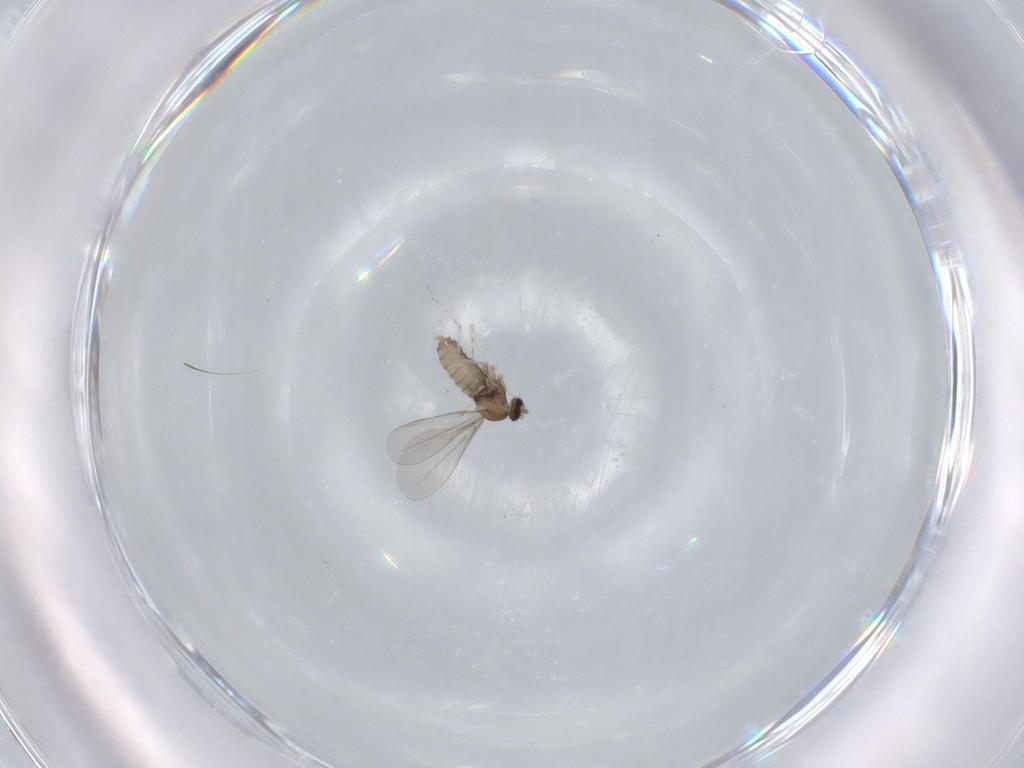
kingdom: Animalia
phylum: Arthropoda
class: Insecta
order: Diptera
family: Cecidomyiidae
